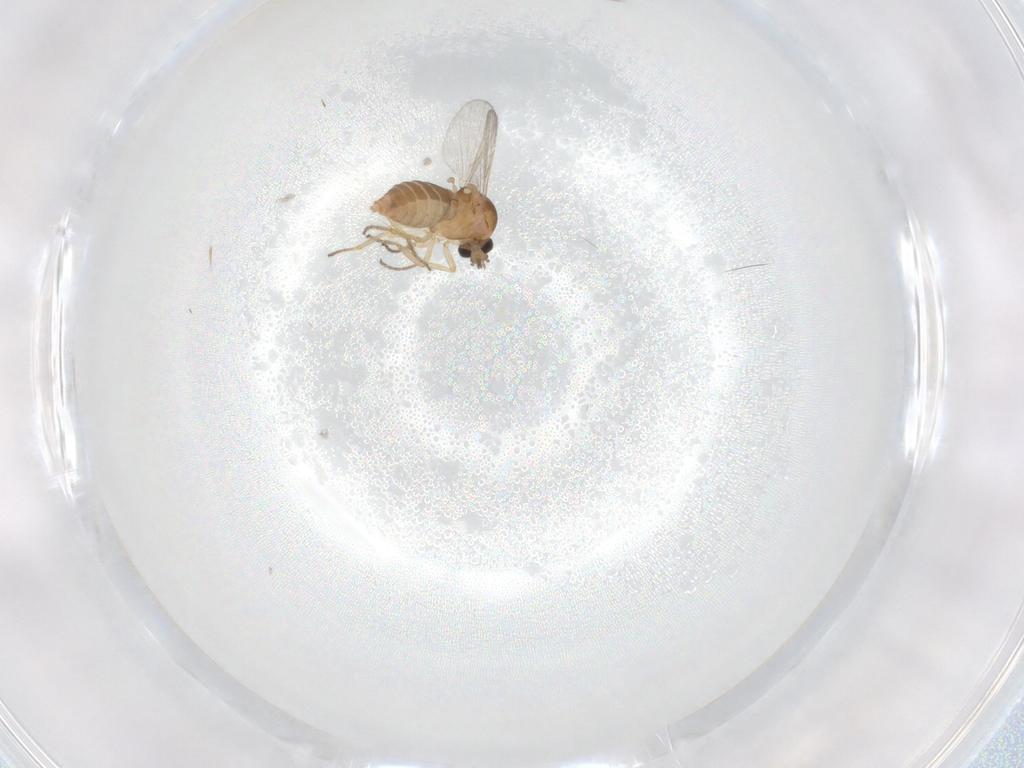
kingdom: Animalia
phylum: Arthropoda
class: Insecta
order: Diptera
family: Ceratopogonidae
